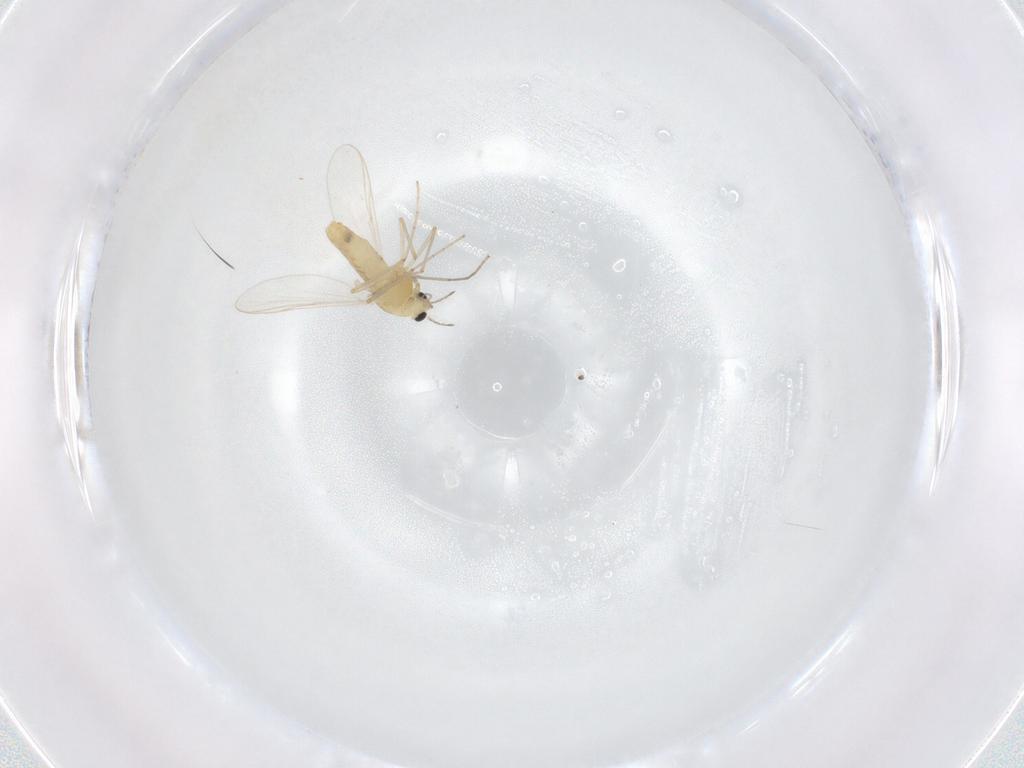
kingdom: Animalia
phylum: Arthropoda
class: Insecta
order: Diptera
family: Chironomidae
